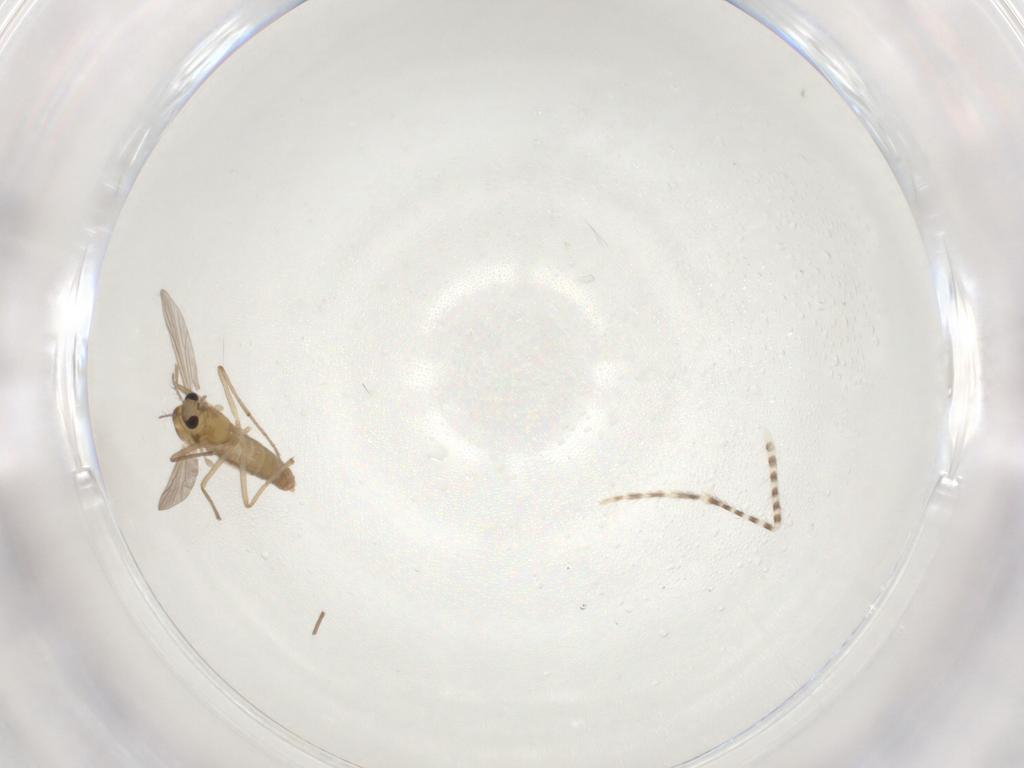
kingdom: Animalia
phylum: Arthropoda
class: Insecta
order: Diptera
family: Chironomidae
